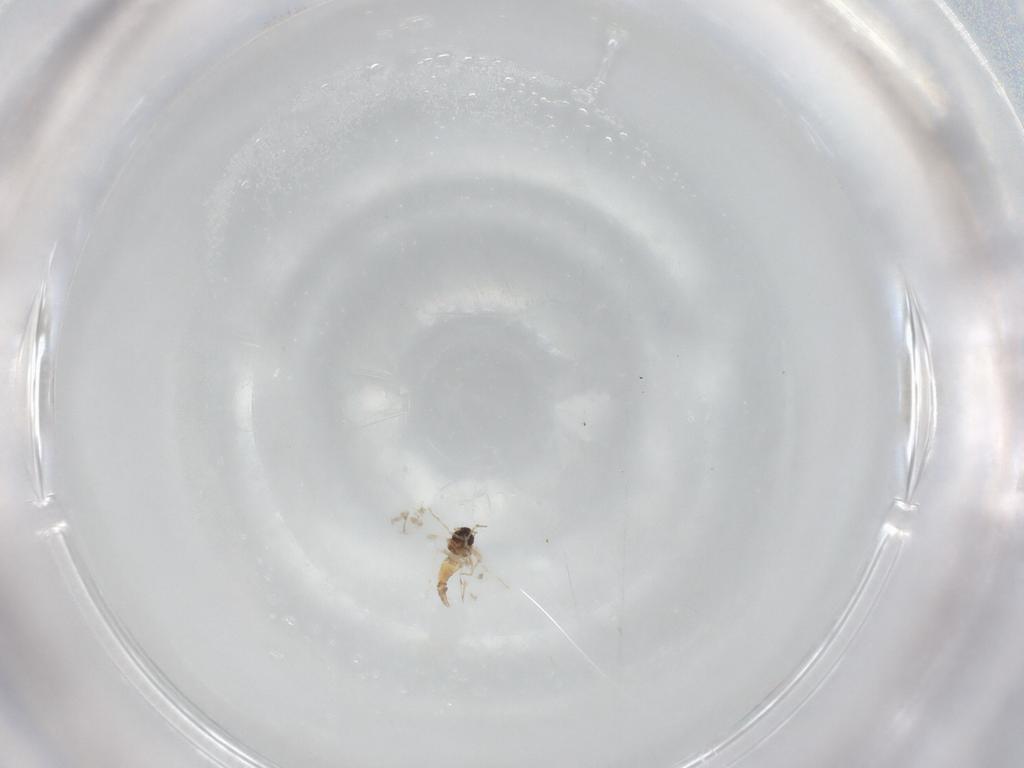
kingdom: Animalia
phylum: Arthropoda
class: Insecta
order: Hemiptera
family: Aleyrodidae
